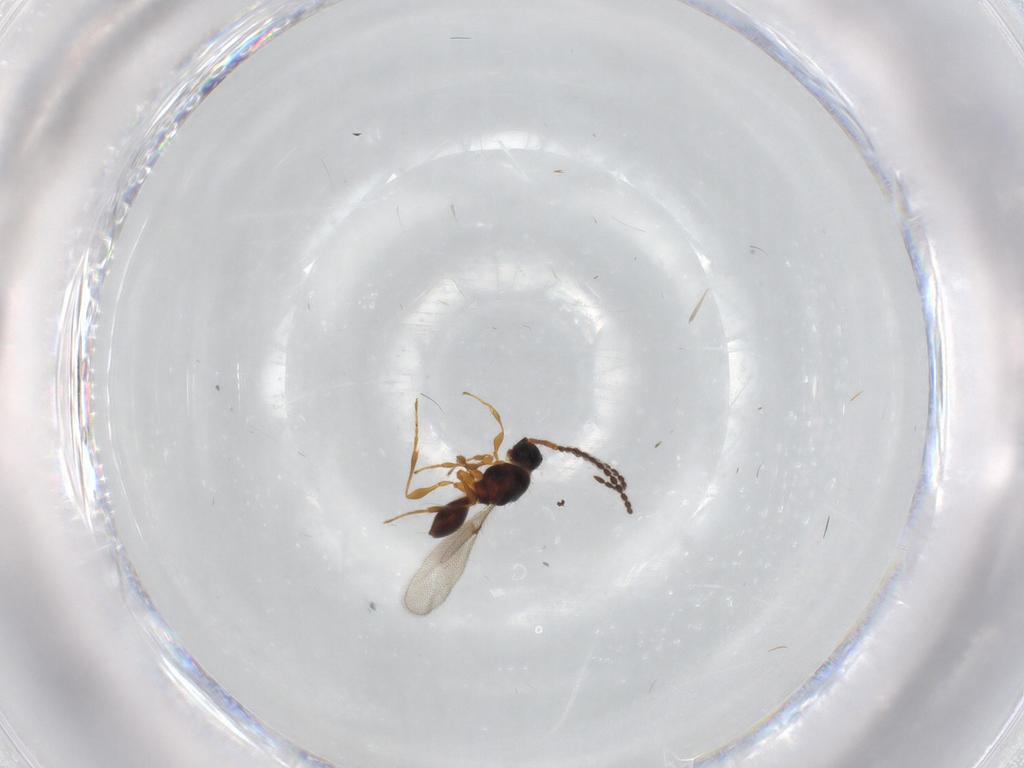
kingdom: Animalia
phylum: Arthropoda
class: Insecta
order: Hymenoptera
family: Diapriidae
